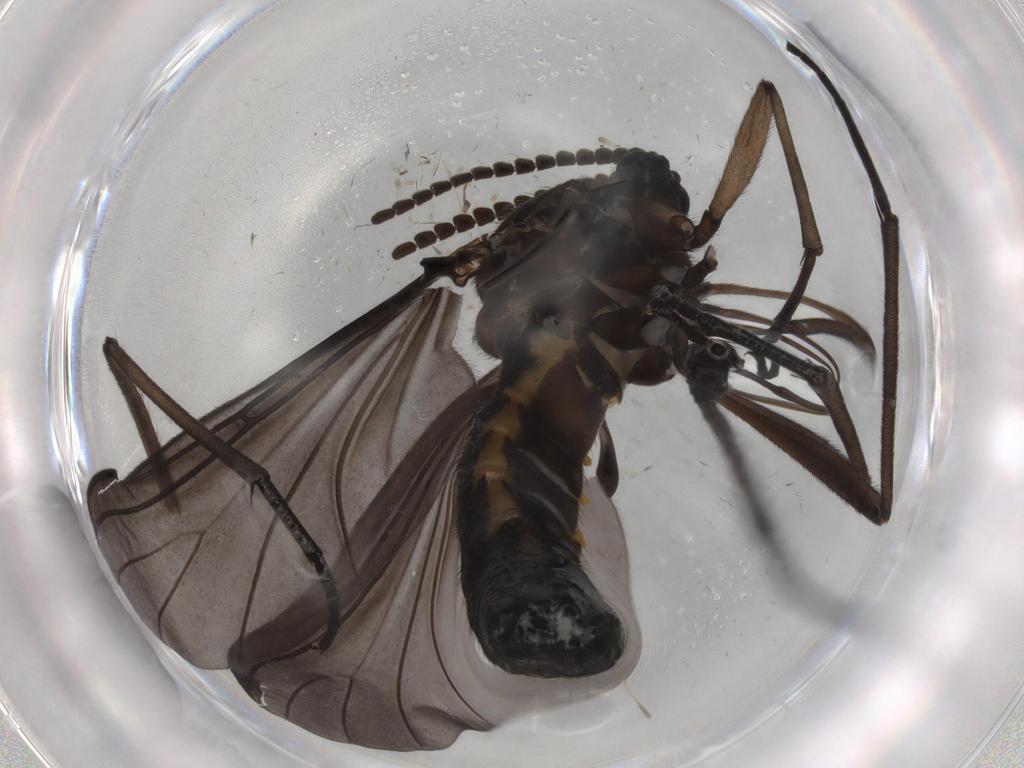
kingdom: Animalia
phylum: Arthropoda
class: Insecta
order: Diptera
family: Sciaridae
